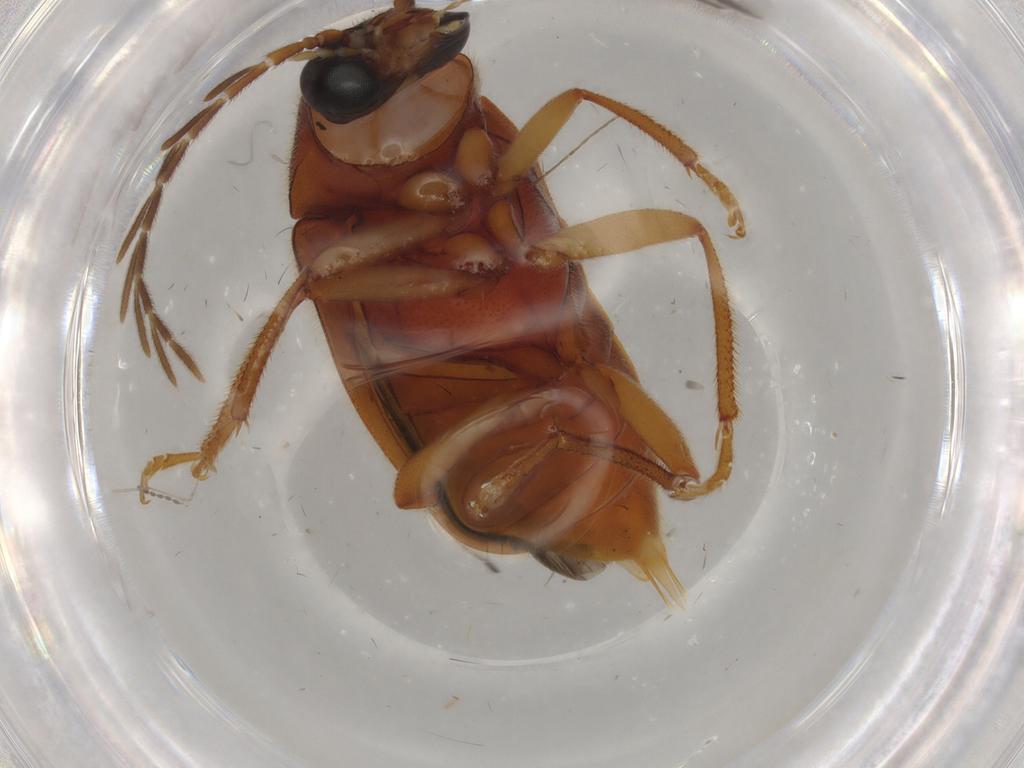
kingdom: Animalia
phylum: Arthropoda
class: Insecta
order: Coleoptera
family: Ptilodactylidae
